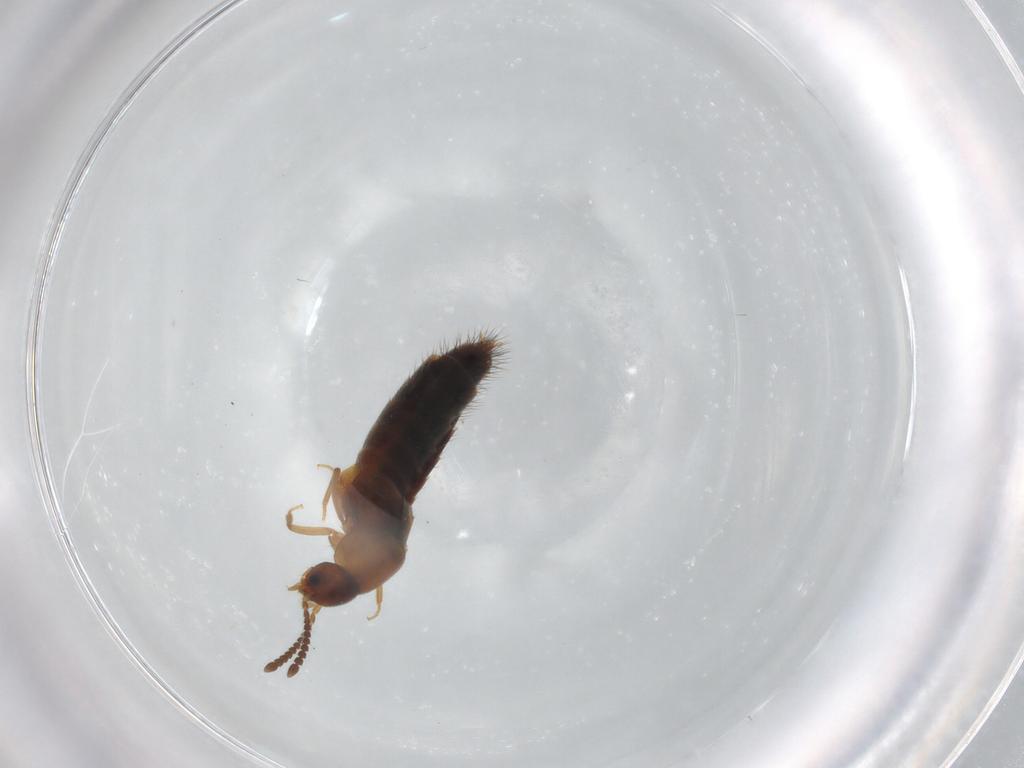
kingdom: Animalia
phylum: Arthropoda
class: Insecta
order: Coleoptera
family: Staphylinidae
